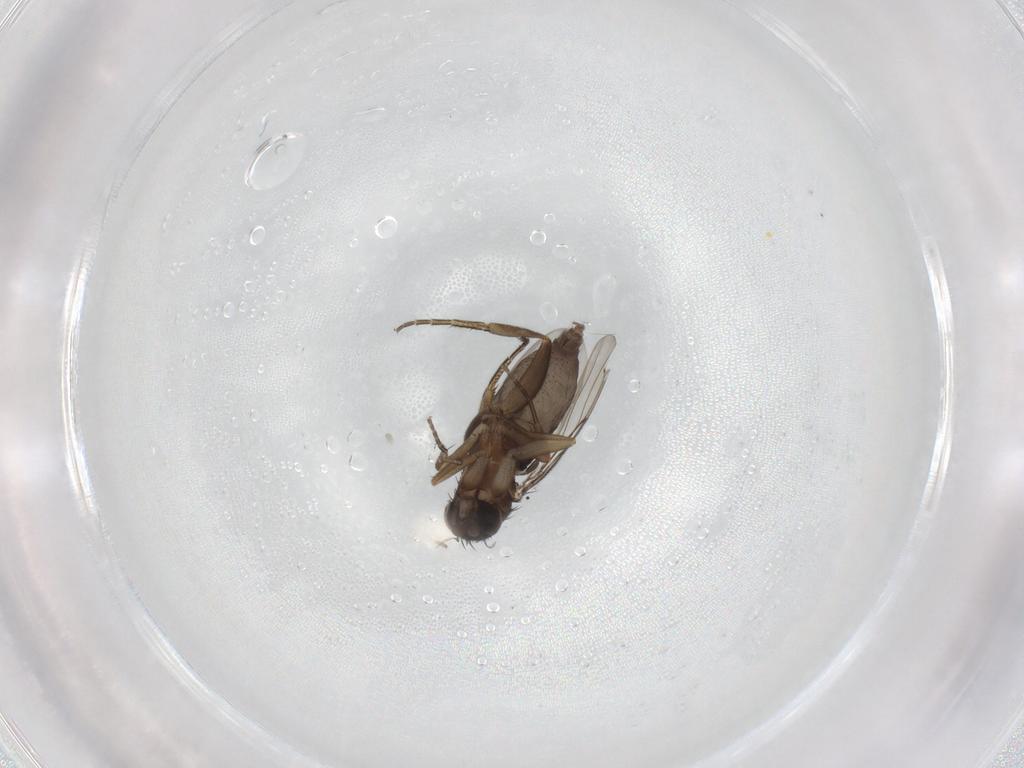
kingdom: Animalia
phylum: Arthropoda
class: Insecta
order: Diptera
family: Phoridae
